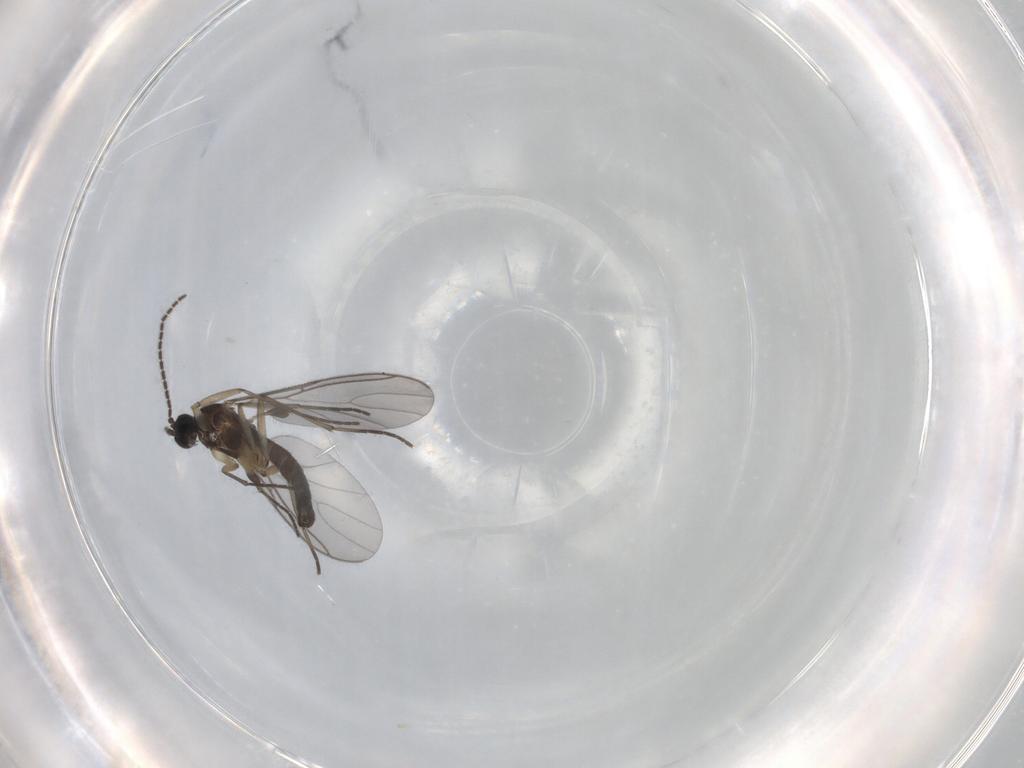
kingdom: Animalia
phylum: Arthropoda
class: Insecta
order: Diptera
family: Sciaridae
